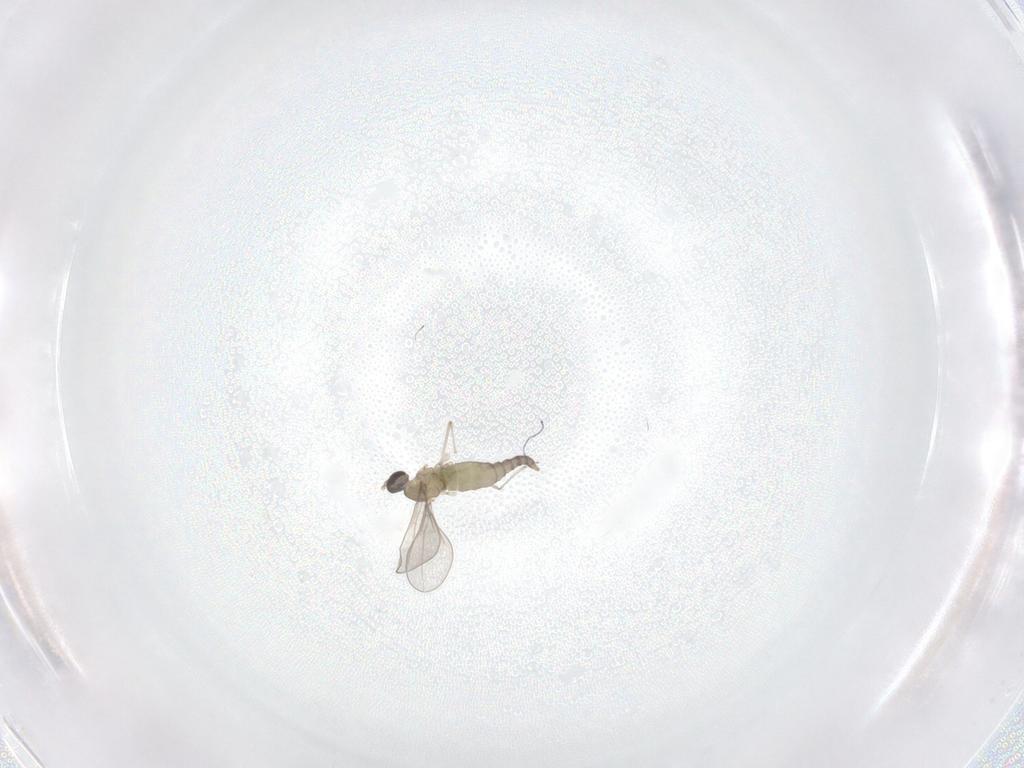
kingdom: Animalia
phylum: Arthropoda
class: Insecta
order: Diptera
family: Cecidomyiidae
